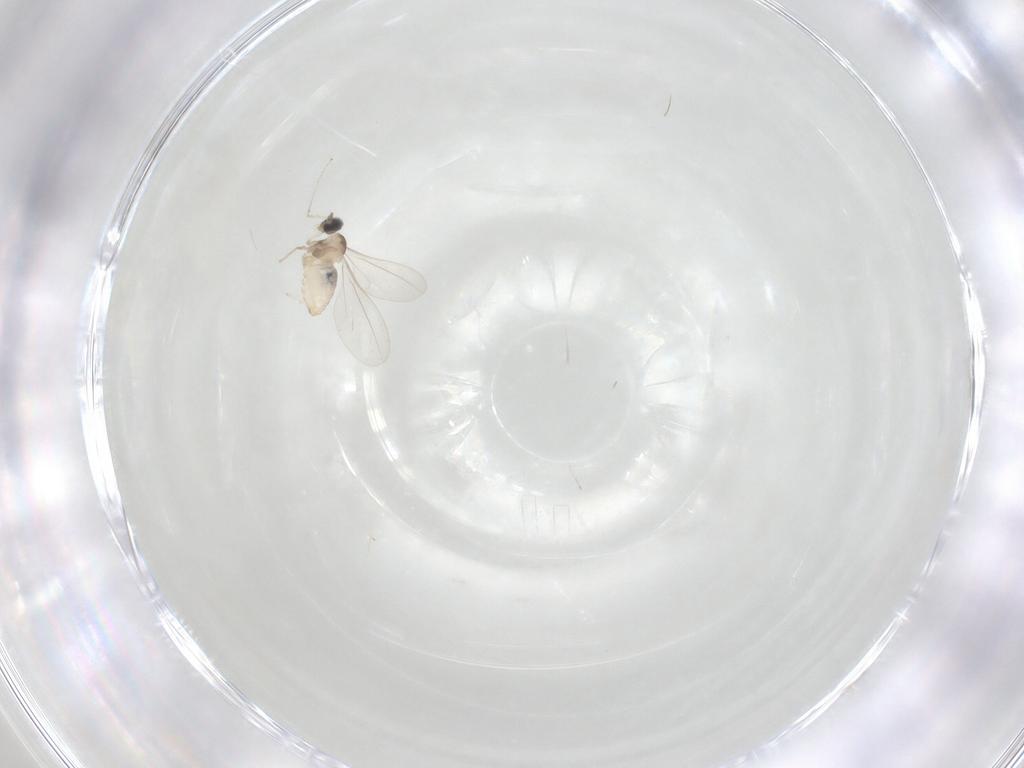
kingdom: Animalia
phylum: Arthropoda
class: Insecta
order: Diptera
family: Cecidomyiidae
